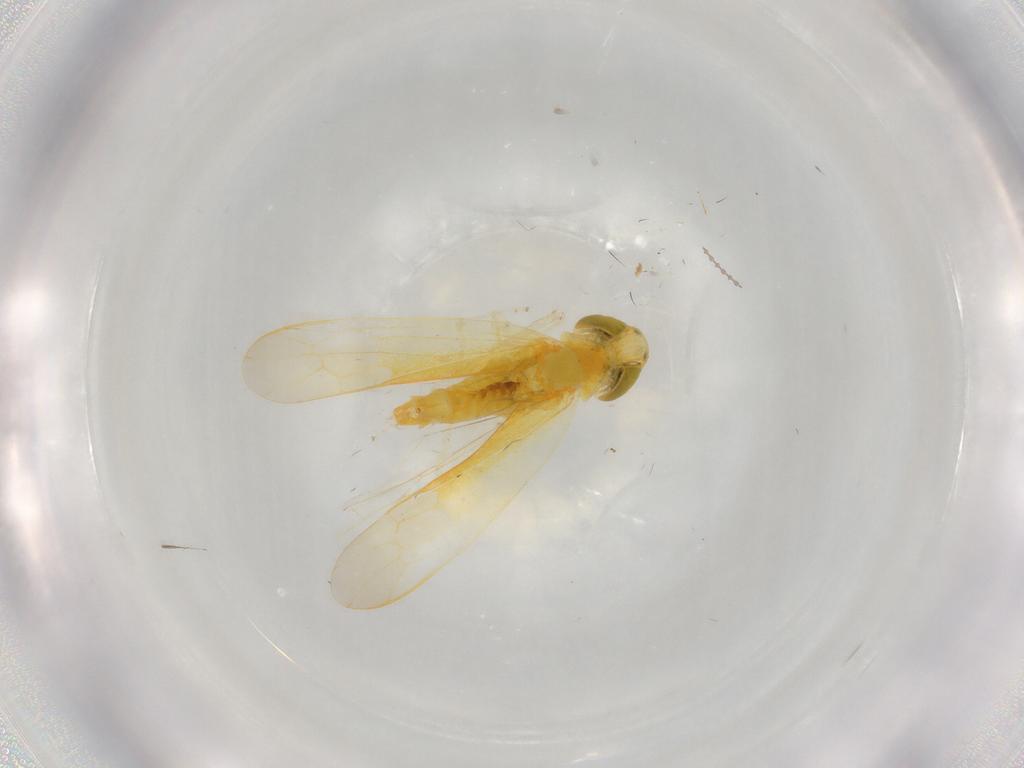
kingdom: Animalia
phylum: Arthropoda
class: Insecta
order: Hemiptera
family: Cicadellidae
